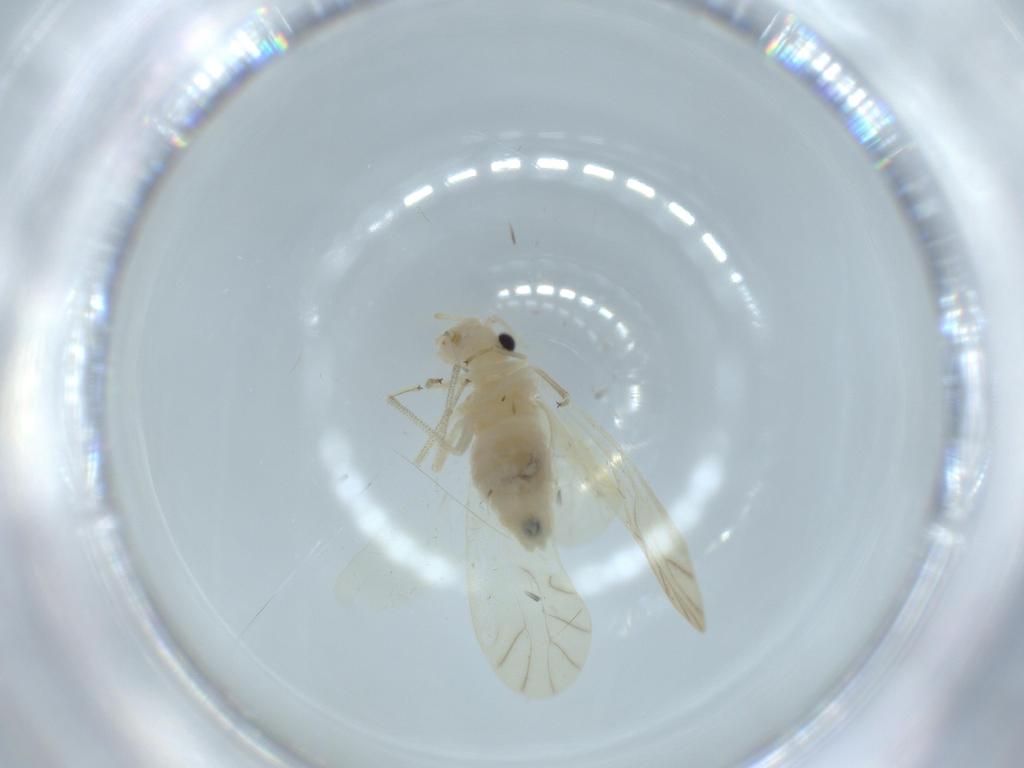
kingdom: Animalia
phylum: Arthropoda
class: Insecta
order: Psocodea
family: Caeciliusidae
